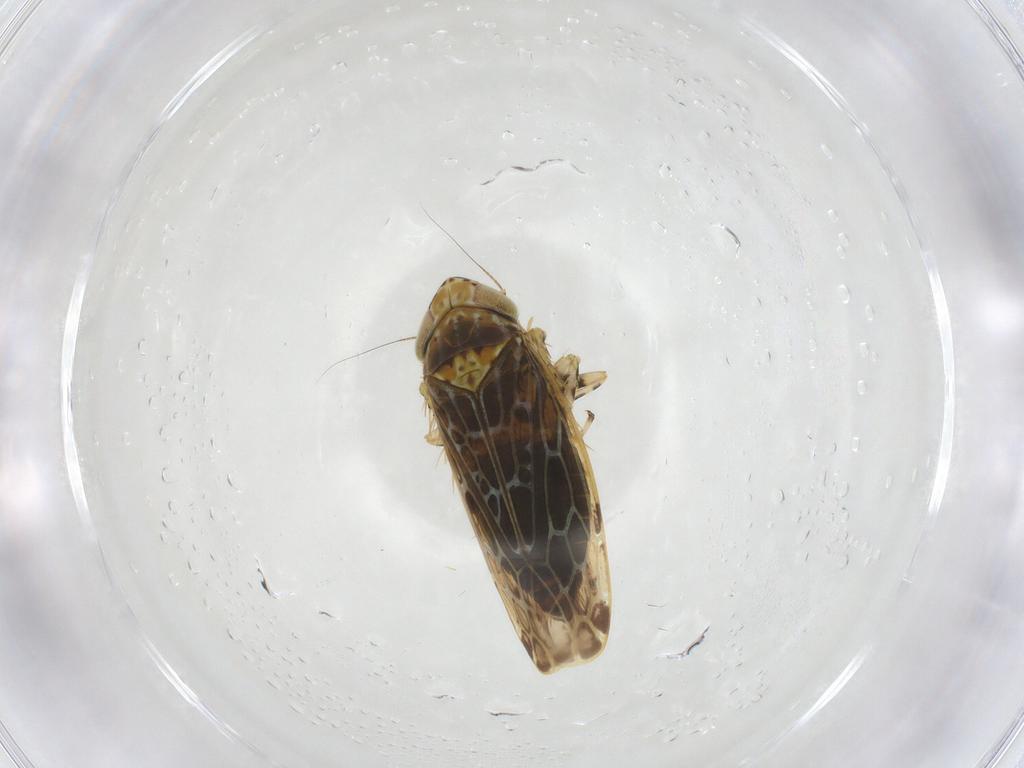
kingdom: Animalia
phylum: Arthropoda
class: Insecta
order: Hemiptera
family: Cicadellidae
